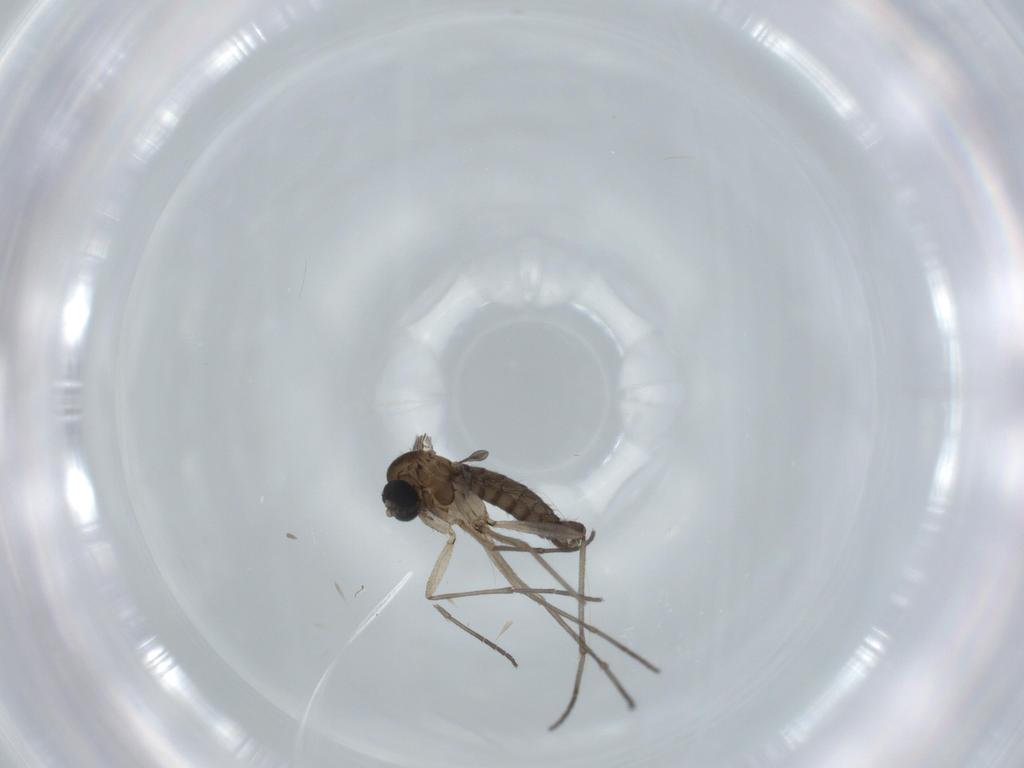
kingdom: Animalia
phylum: Arthropoda
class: Insecta
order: Diptera
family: Sciaridae
